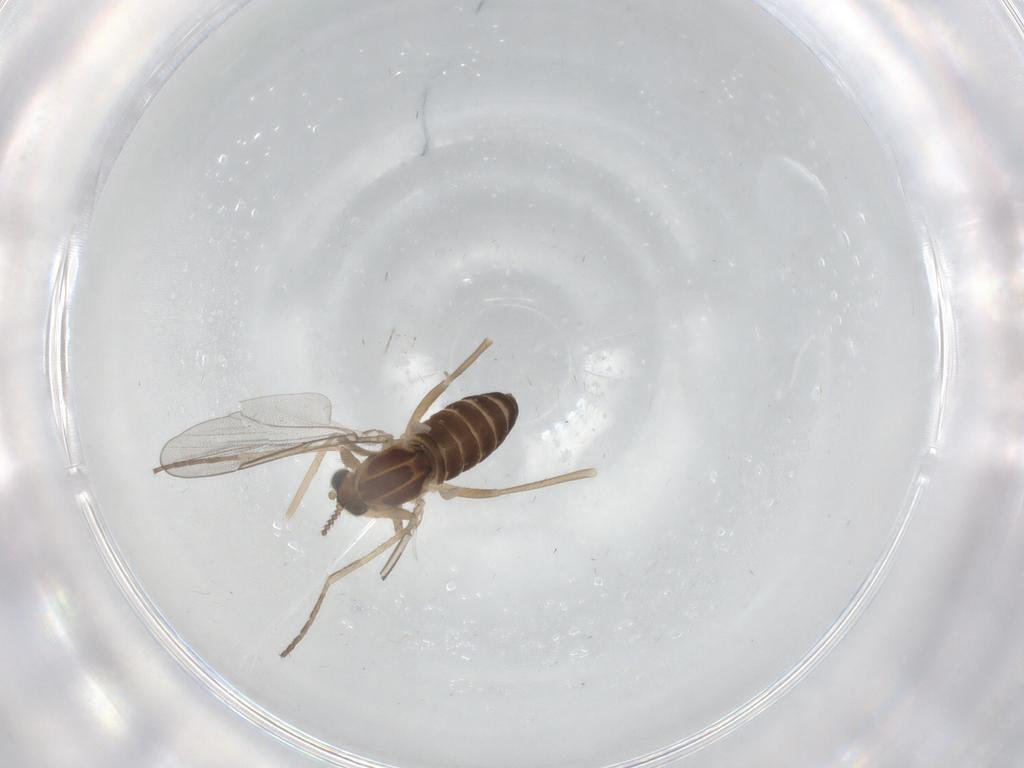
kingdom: Animalia
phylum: Arthropoda
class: Insecta
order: Diptera
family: Cecidomyiidae
